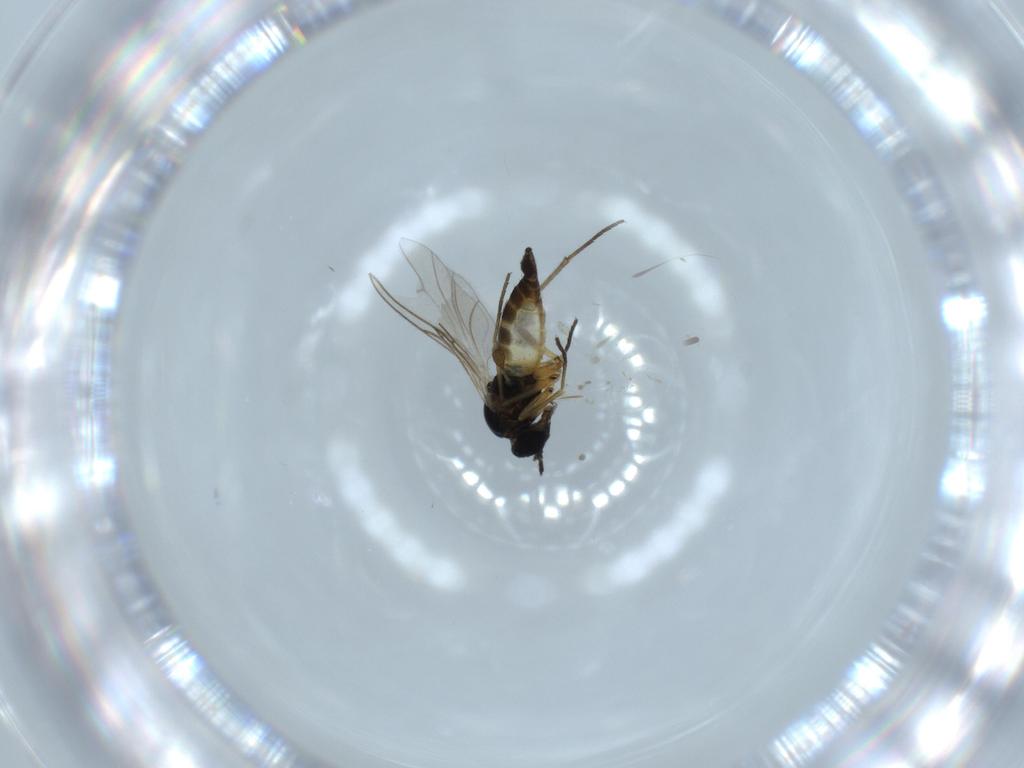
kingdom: Animalia
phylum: Arthropoda
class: Insecta
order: Diptera
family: Sciaridae
